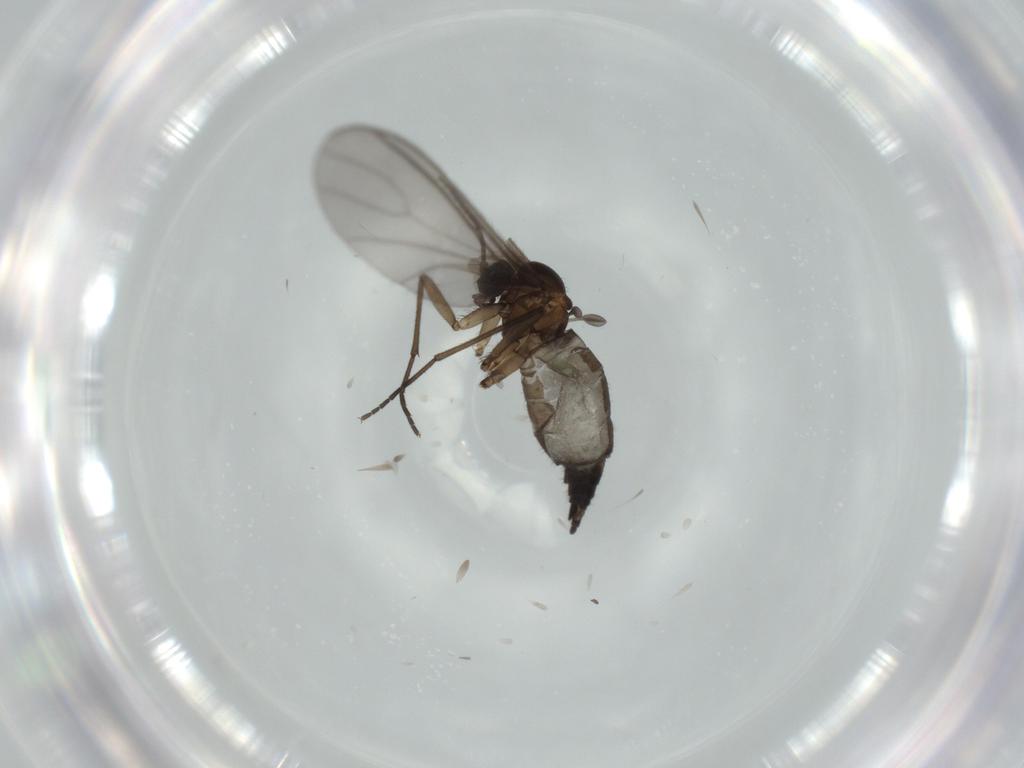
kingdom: Animalia
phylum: Arthropoda
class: Insecta
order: Diptera
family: Sciaridae
